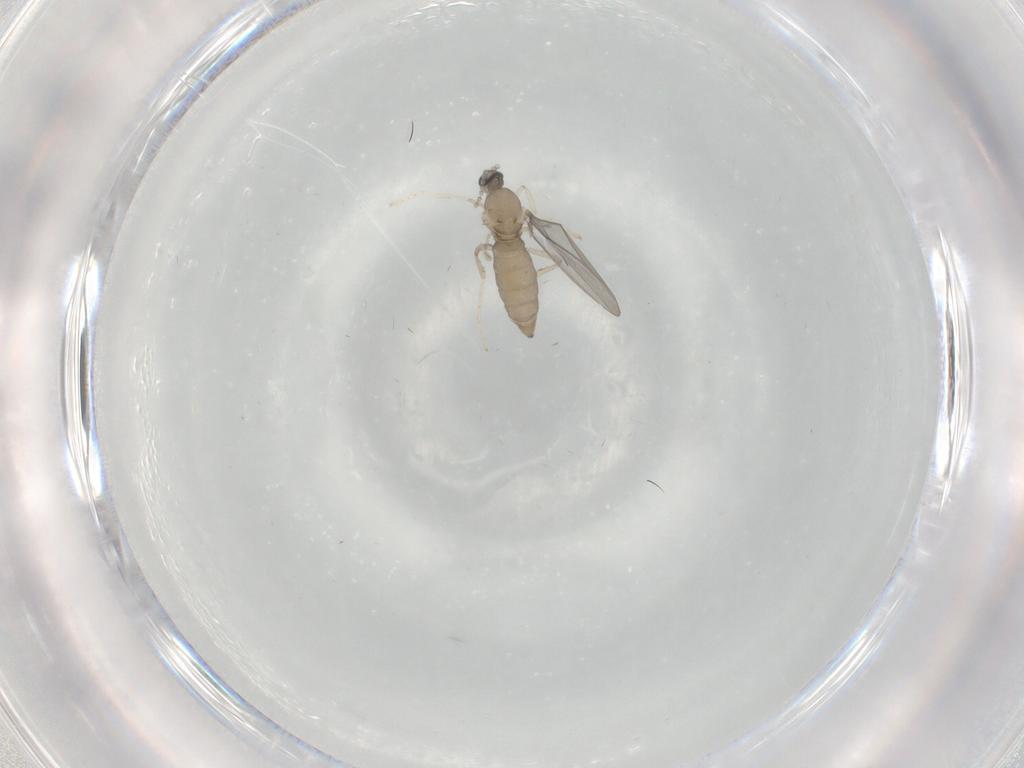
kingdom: Animalia
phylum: Arthropoda
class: Insecta
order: Diptera
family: Cecidomyiidae
